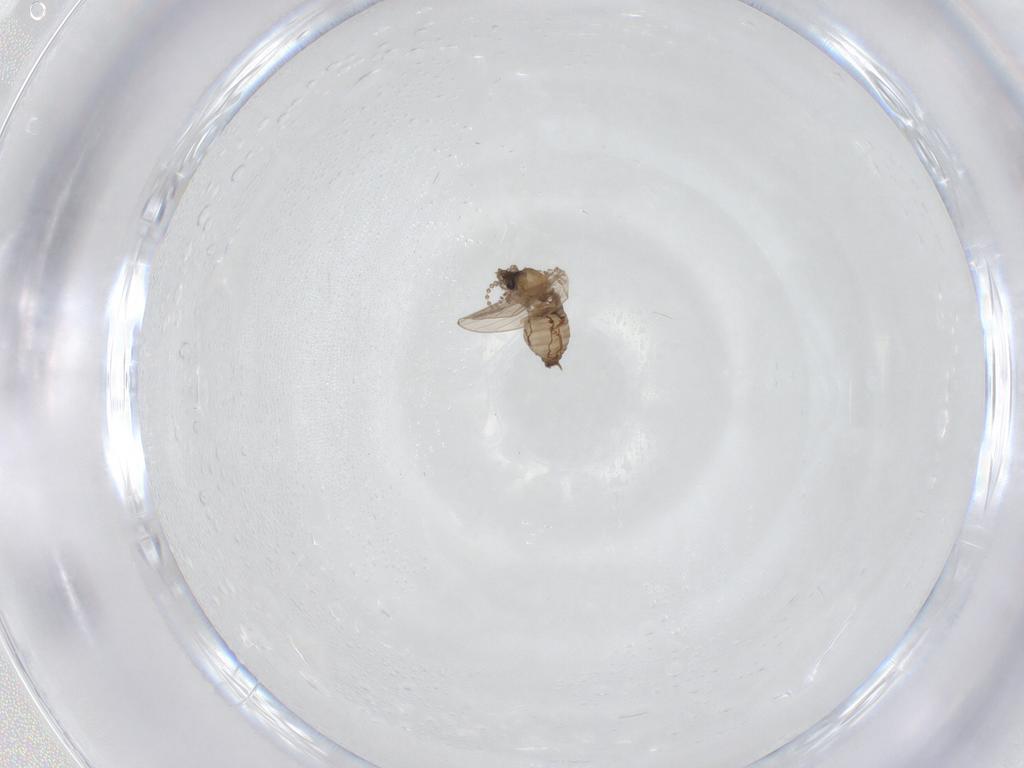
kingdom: Animalia
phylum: Arthropoda
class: Insecta
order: Diptera
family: Psychodidae
